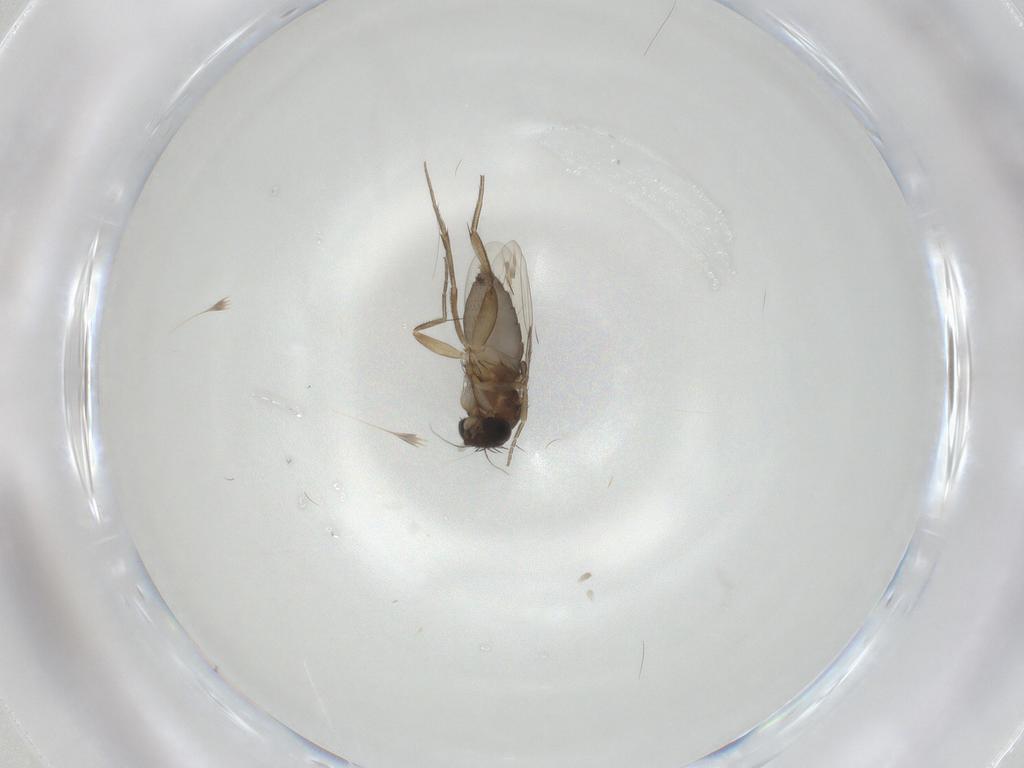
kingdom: Animalia
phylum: Arthropoda
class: Insecta
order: Diptera
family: Phoridae
